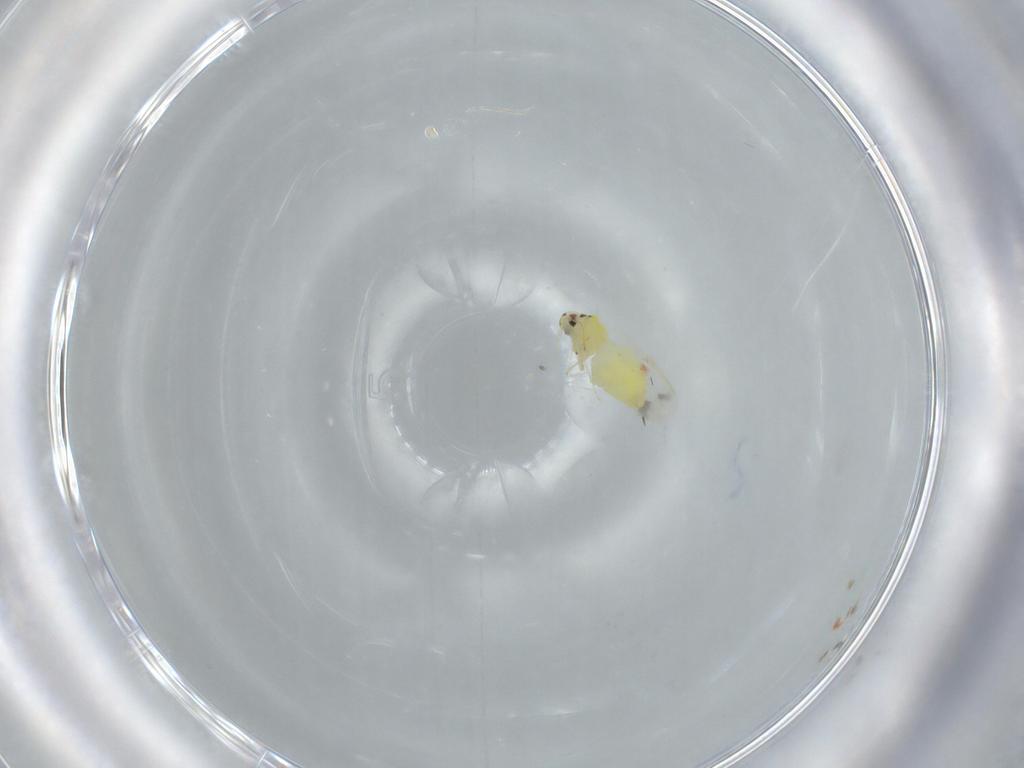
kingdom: Animalia
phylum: Arthropoda
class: Insecta
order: Hemiptera
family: Aleyrodidae
